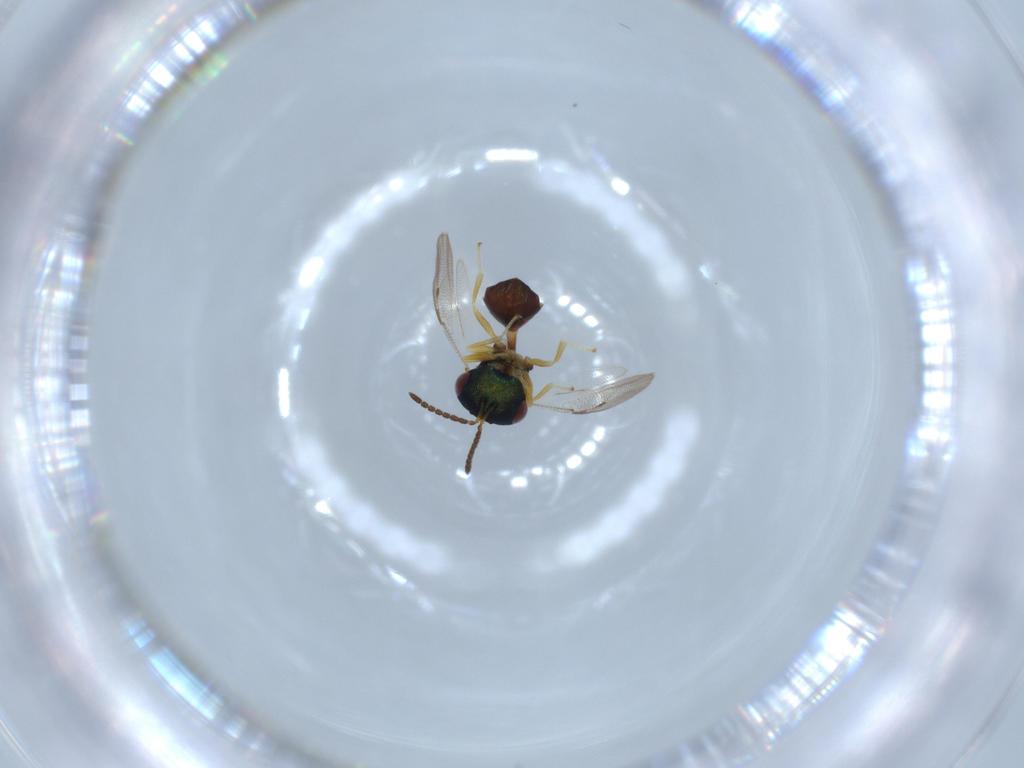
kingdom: Animalia
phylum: Arthropoda
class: Insecta
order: Hymenoptera
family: Pteromalidae
